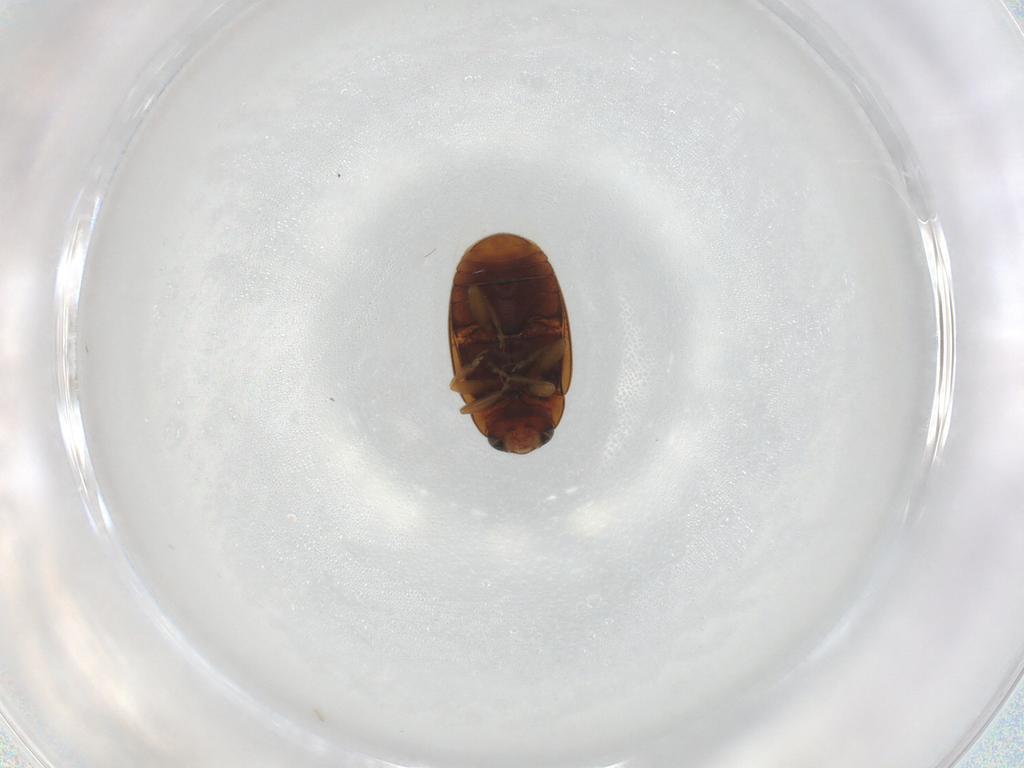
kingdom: Animalia
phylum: Arthropoda
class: Insecta
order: Coleoptera
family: Coccinellidae
